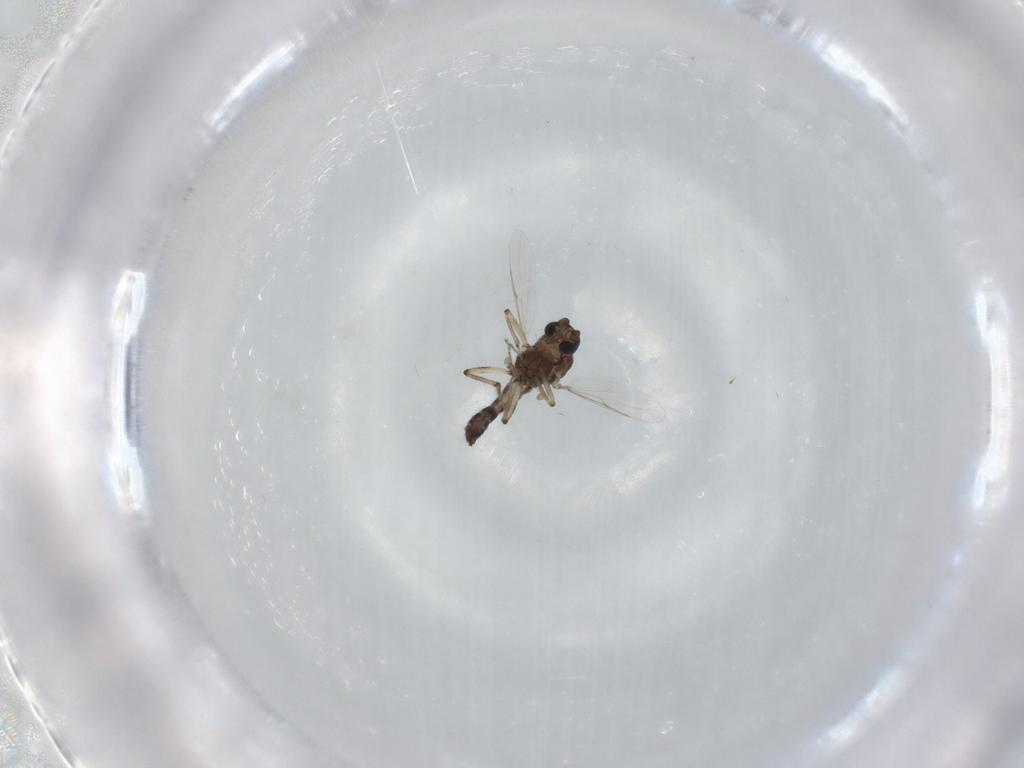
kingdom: Animalia
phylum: Arthropoda
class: Insecta
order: Diptera
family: Ceratopogonidae
